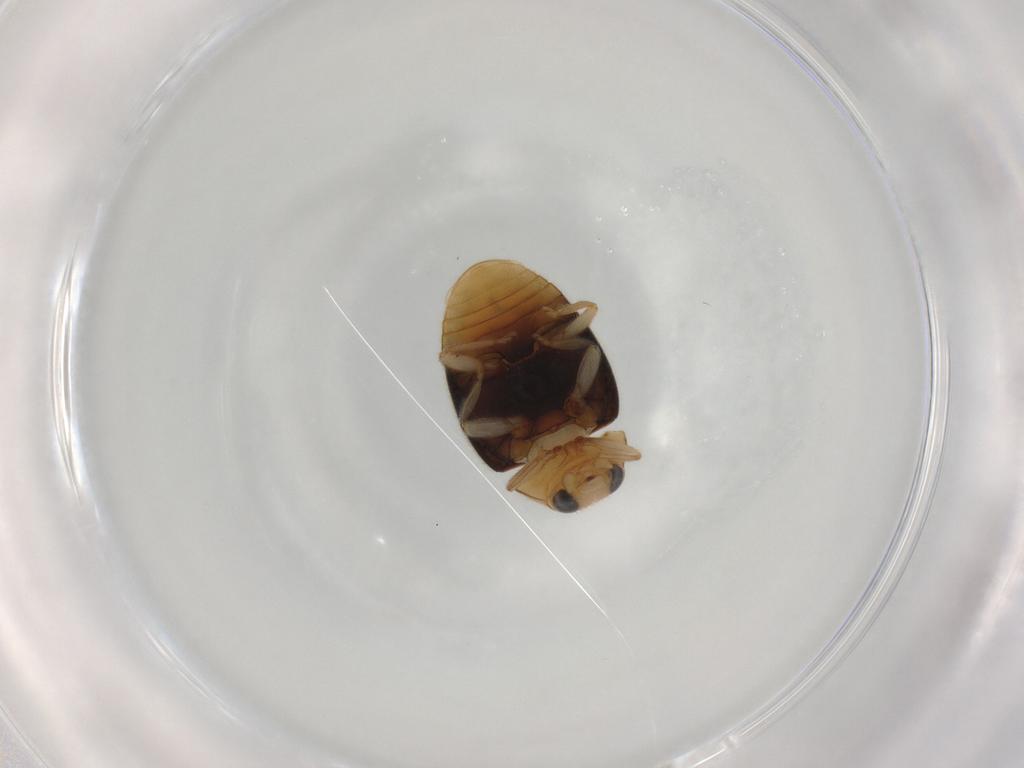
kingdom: Animalia
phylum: Arthropoda
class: Insecta
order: Coleoptera
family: Coccinellidae
